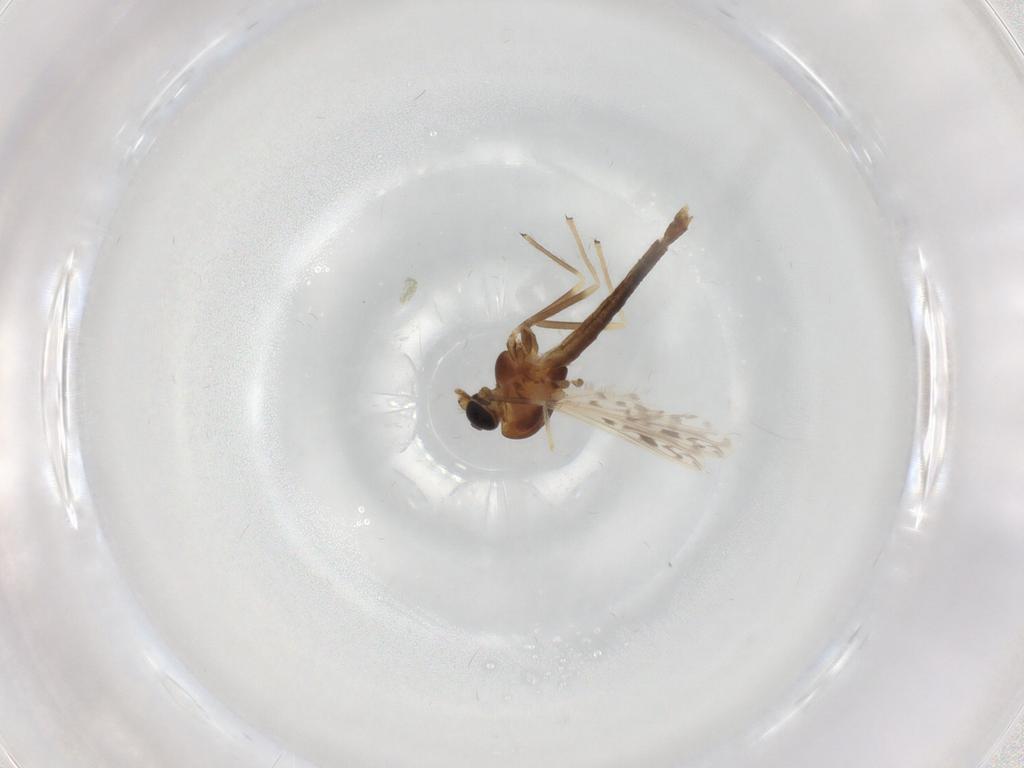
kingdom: Animalia
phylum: Arthropoda
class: Insecta
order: Diptera
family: Chironomidae
